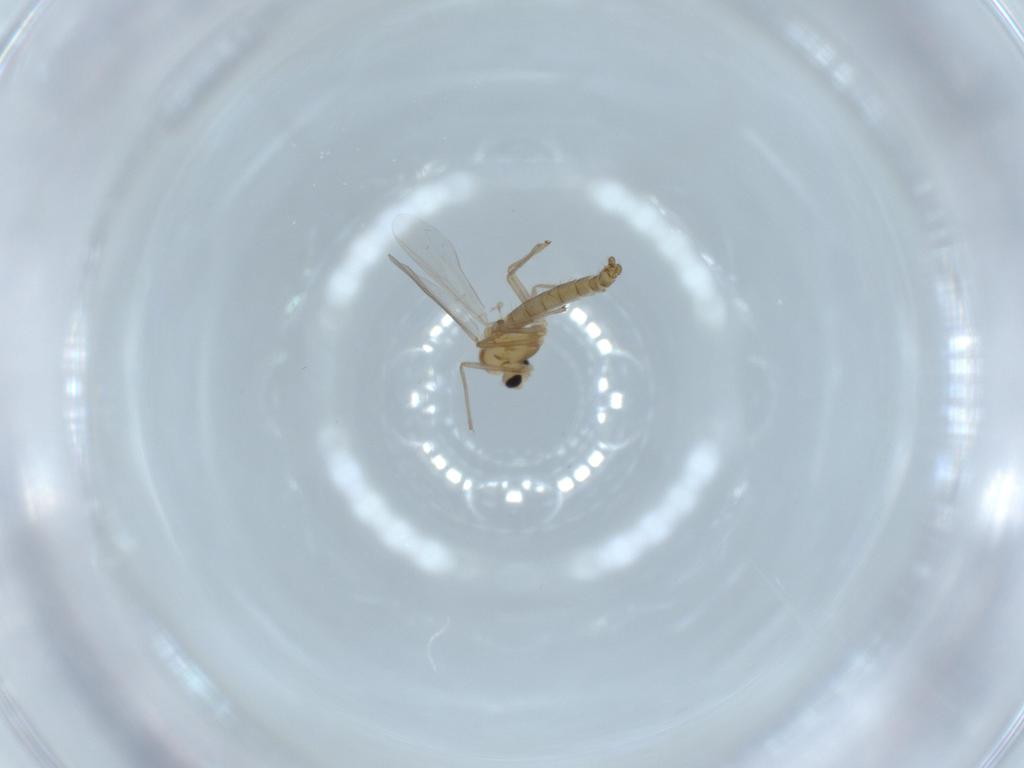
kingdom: Animalia
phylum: Arthropoda
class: Insecta
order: Diptera
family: Chironomidae
